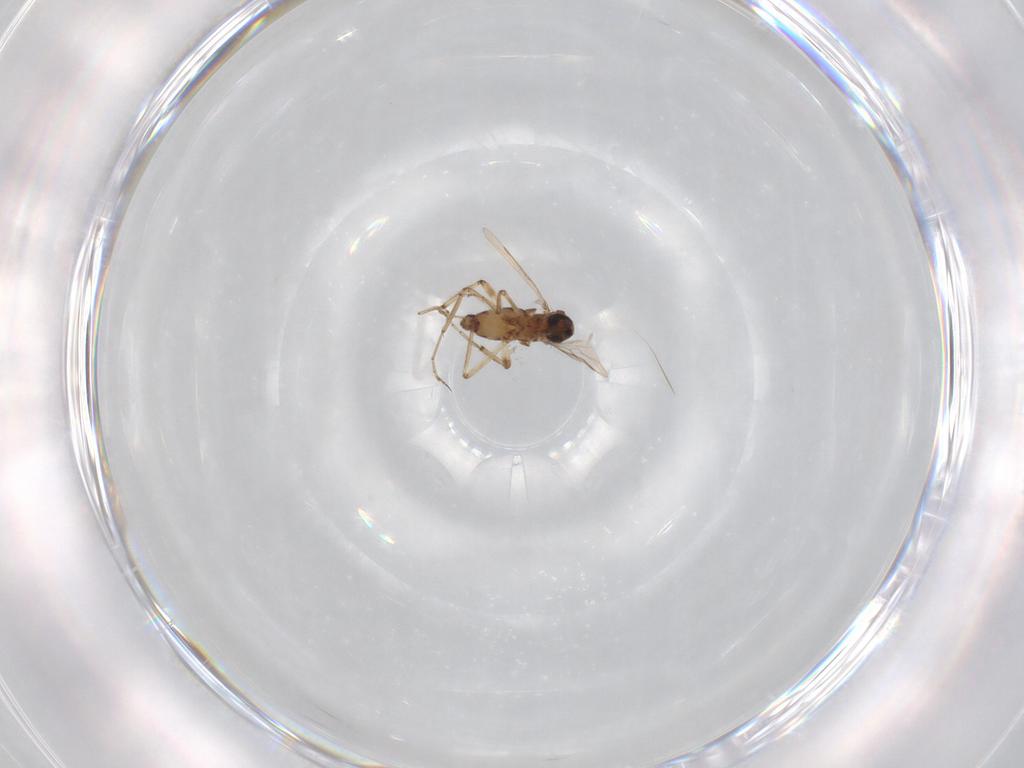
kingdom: Animalia
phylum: Arthropoda
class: Insecta
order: Diptera
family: Ceratopogonidae
